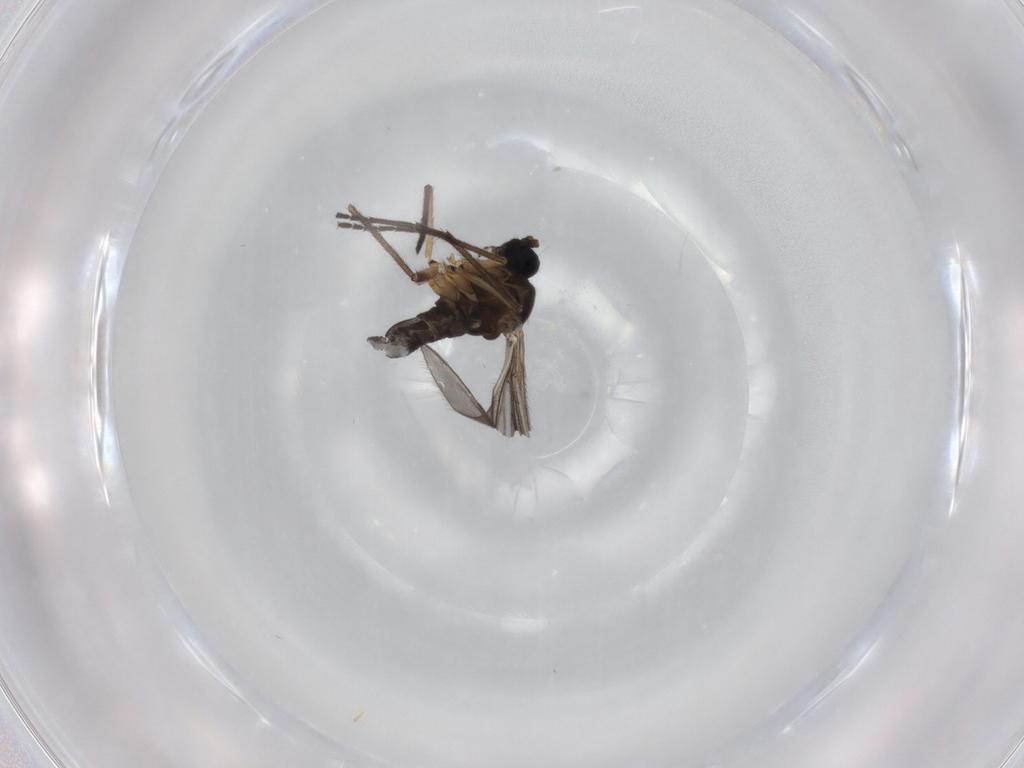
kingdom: Animalia
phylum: Arthropoda
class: Insecta
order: Diptera
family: Sciaridae
